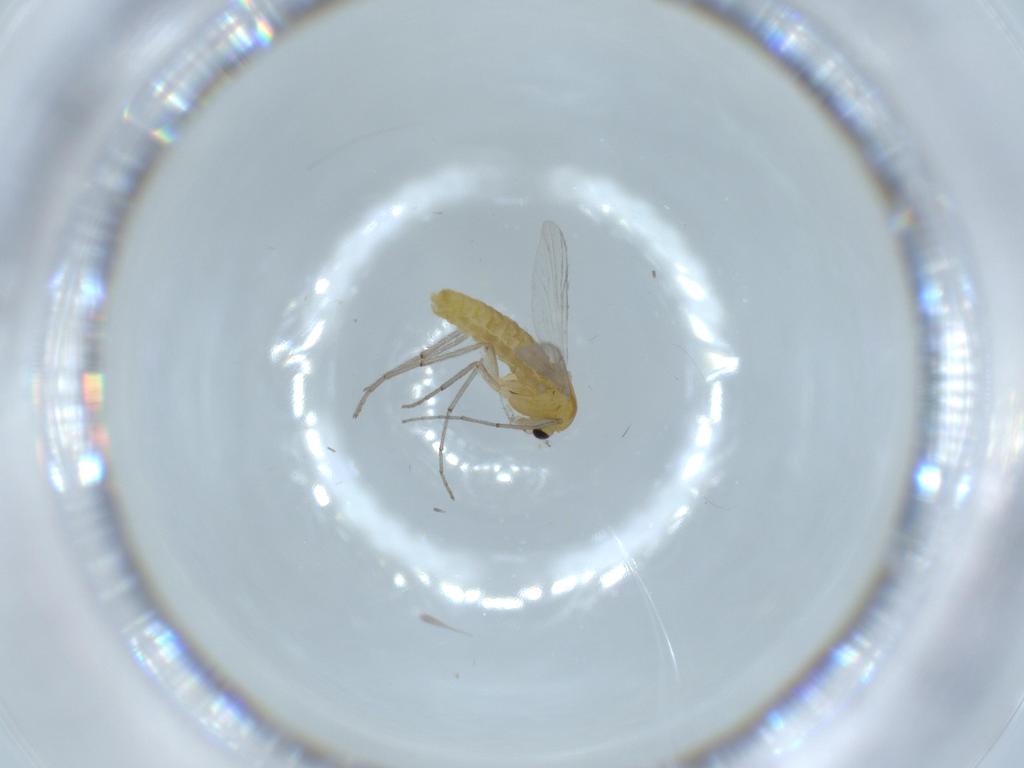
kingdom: Animalia
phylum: Arthropoda
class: Insecta
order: Diptera
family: Chironomidae
